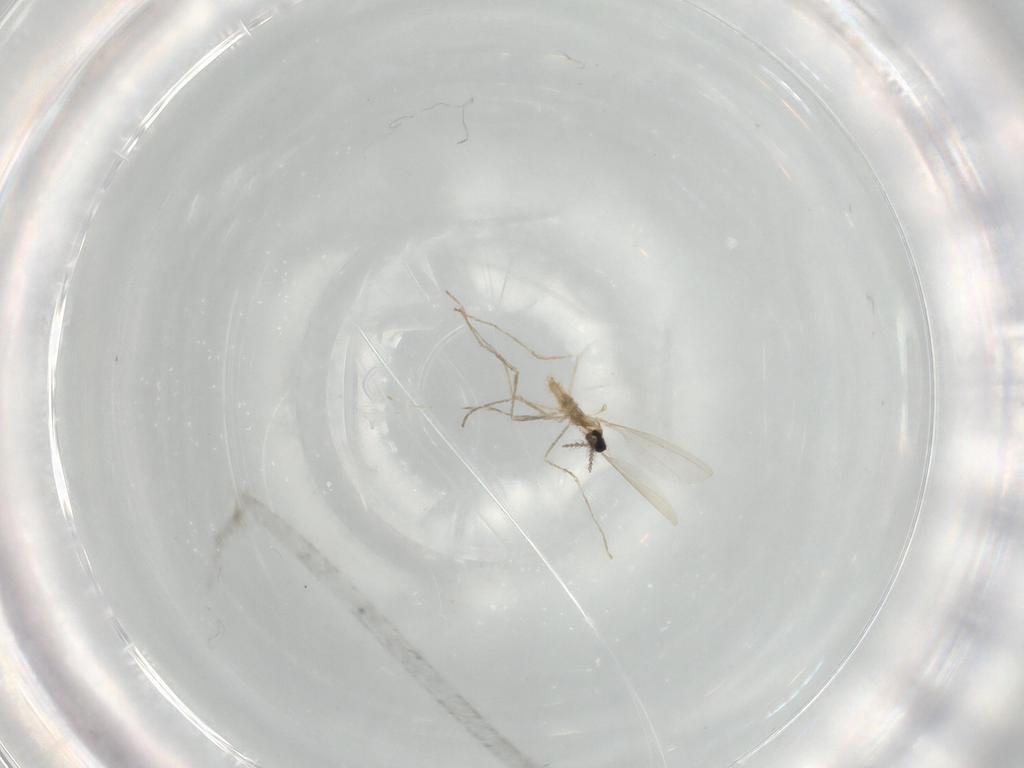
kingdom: Animalia
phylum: Arthropoda
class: Insecta
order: Diptera
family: Cecidomyiidae
